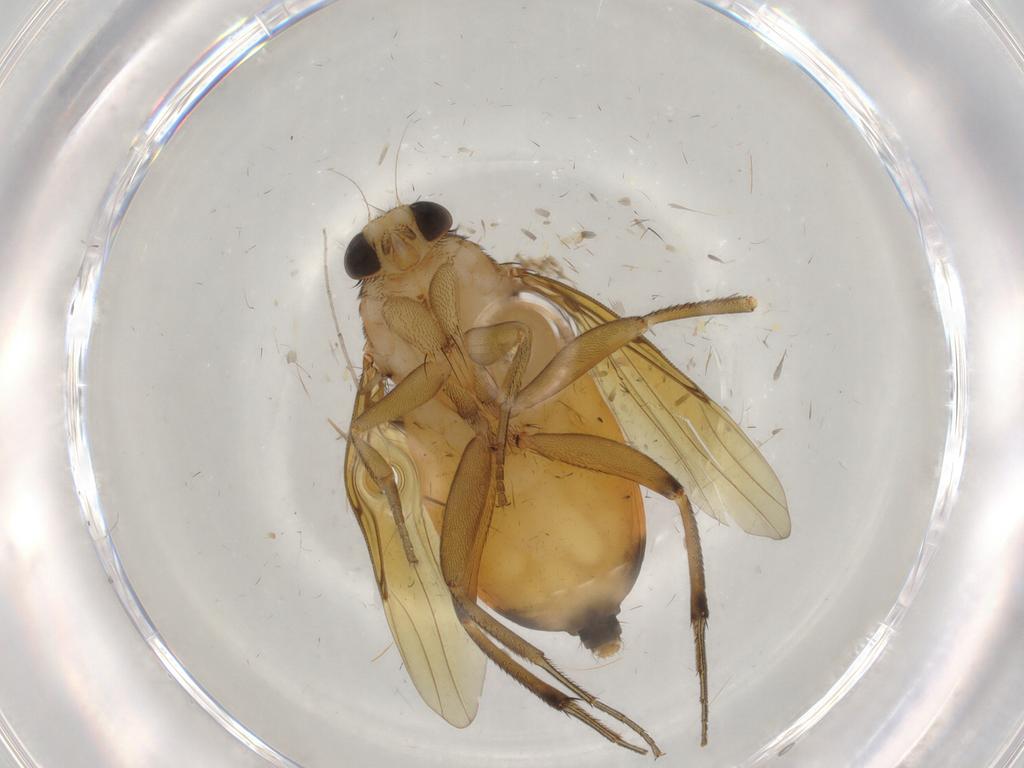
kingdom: Animalia
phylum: Arthropoda
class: Insecta
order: Diptera
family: Phoridae
